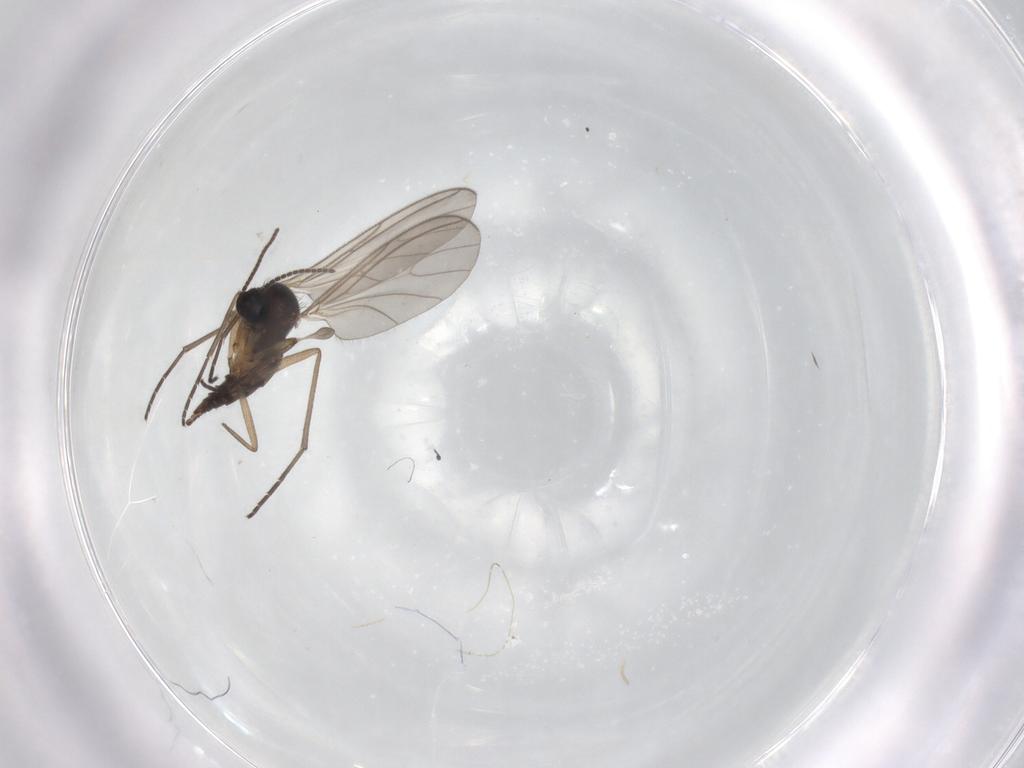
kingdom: Animalia
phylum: Arthropoda
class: Insecta
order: Diptera
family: Sciaridae
